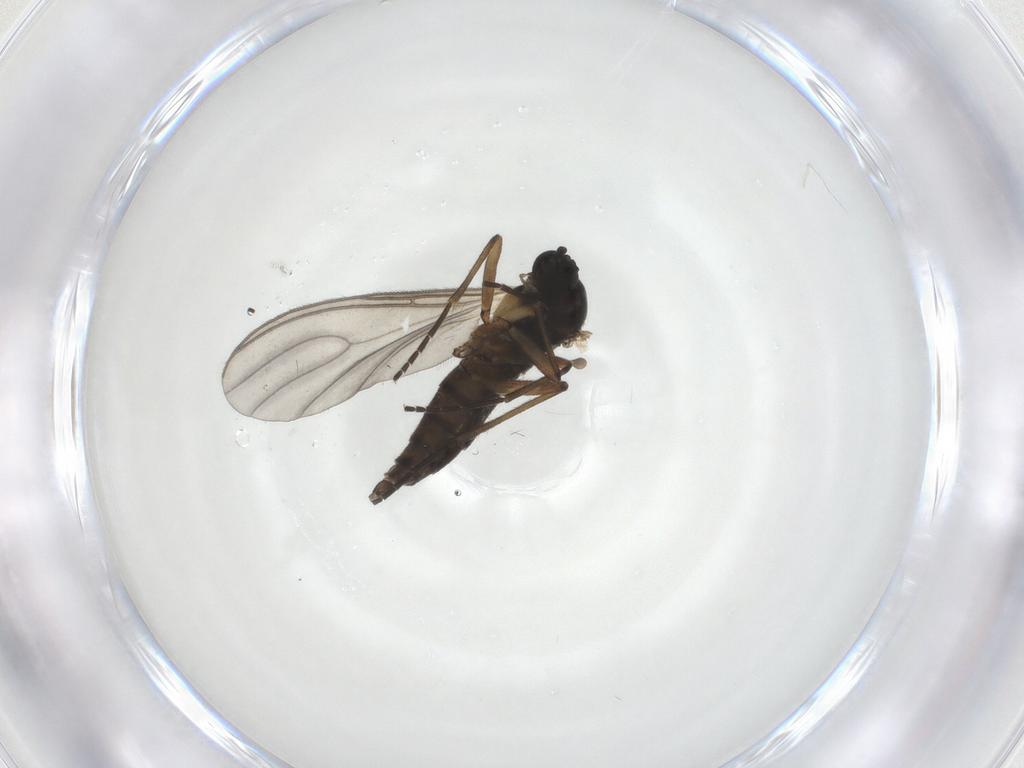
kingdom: Animalia
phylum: Arthropoda
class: Insecta
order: Diptera
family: Sciaridae
